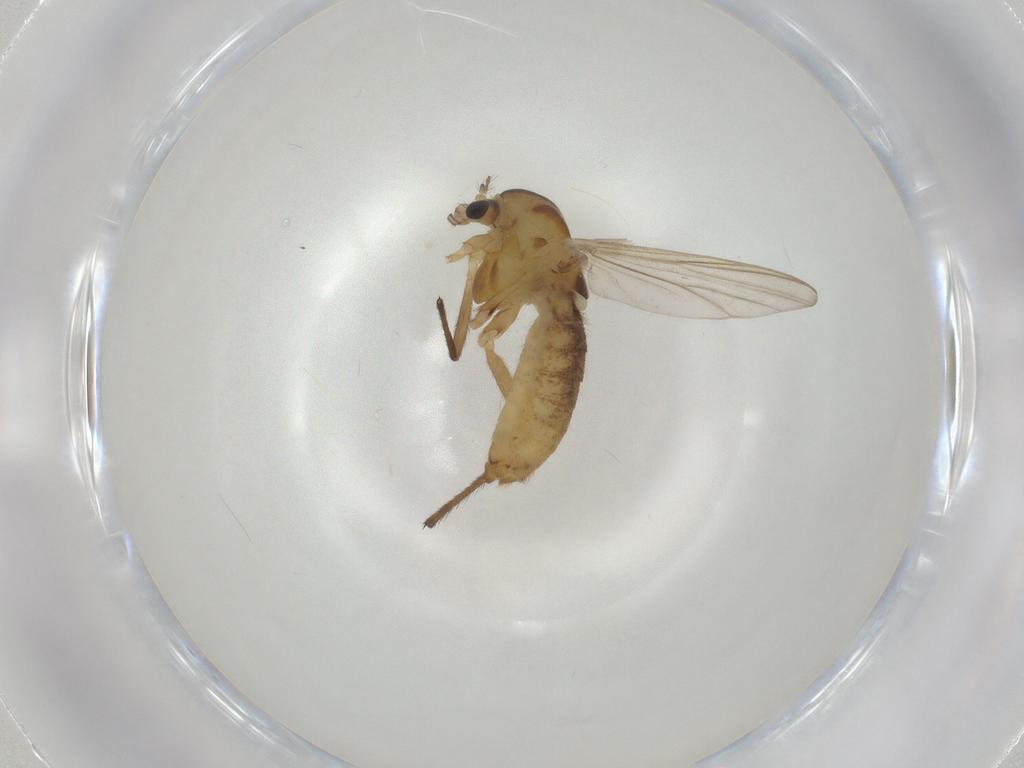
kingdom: Animalia
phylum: Arthropoda
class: Insecta
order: Diptera
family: Chironomidae
